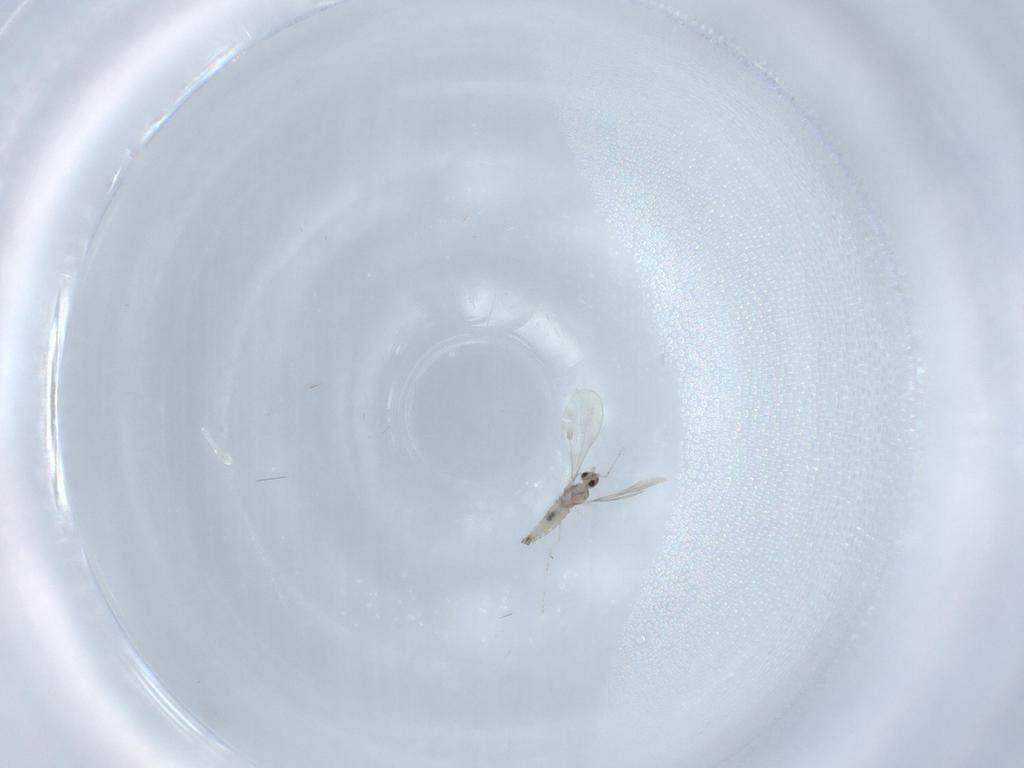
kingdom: Animalia
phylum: Arthropoda
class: Insecta
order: Diptera
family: Cecidomyiidae
